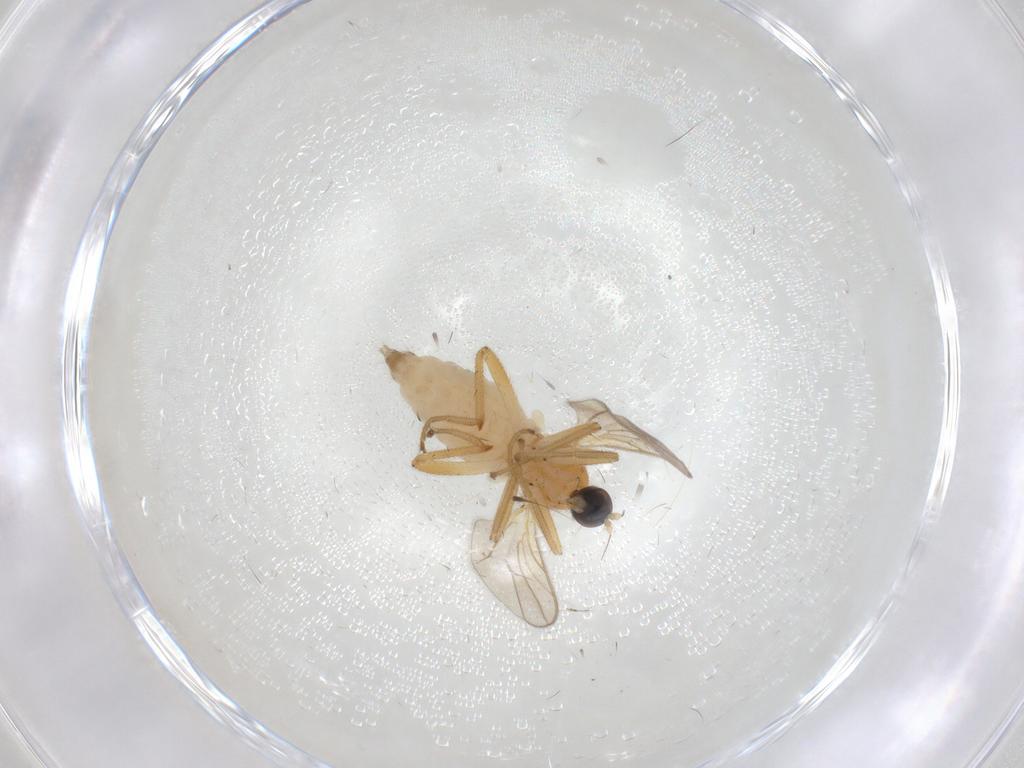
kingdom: Animalia
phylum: Arthropoda
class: Insecta
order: Diptera
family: Hybotidae
